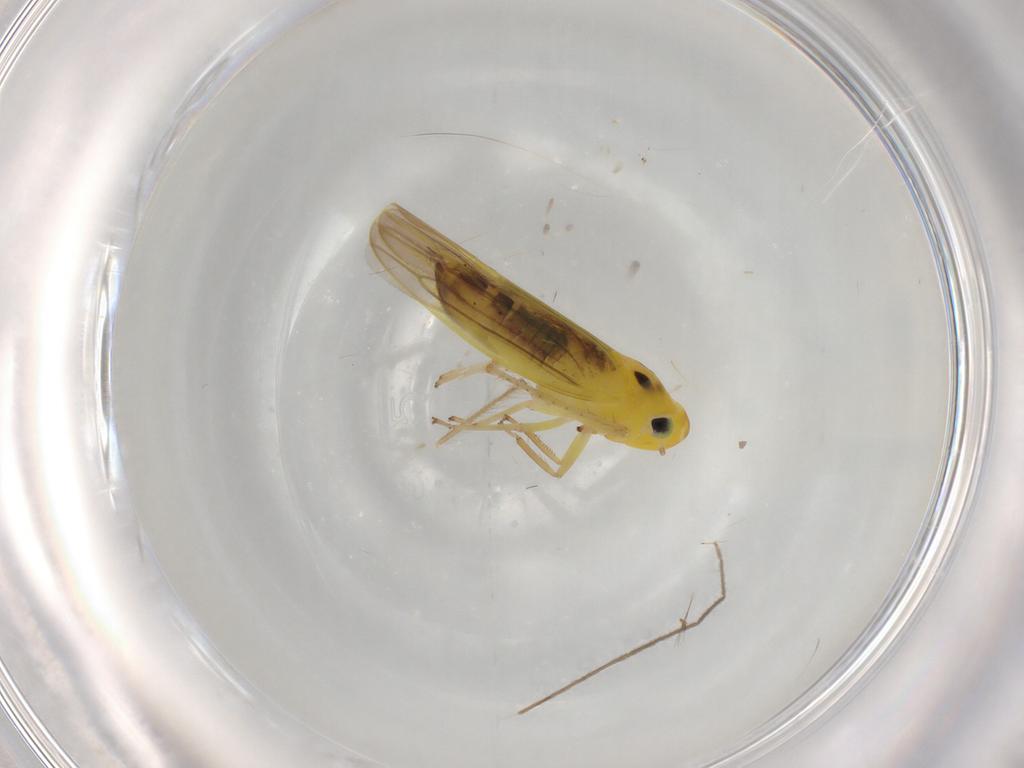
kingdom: Animalia
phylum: Arthropoda
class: Insecta
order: Hemiptera
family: Cicadellidae
